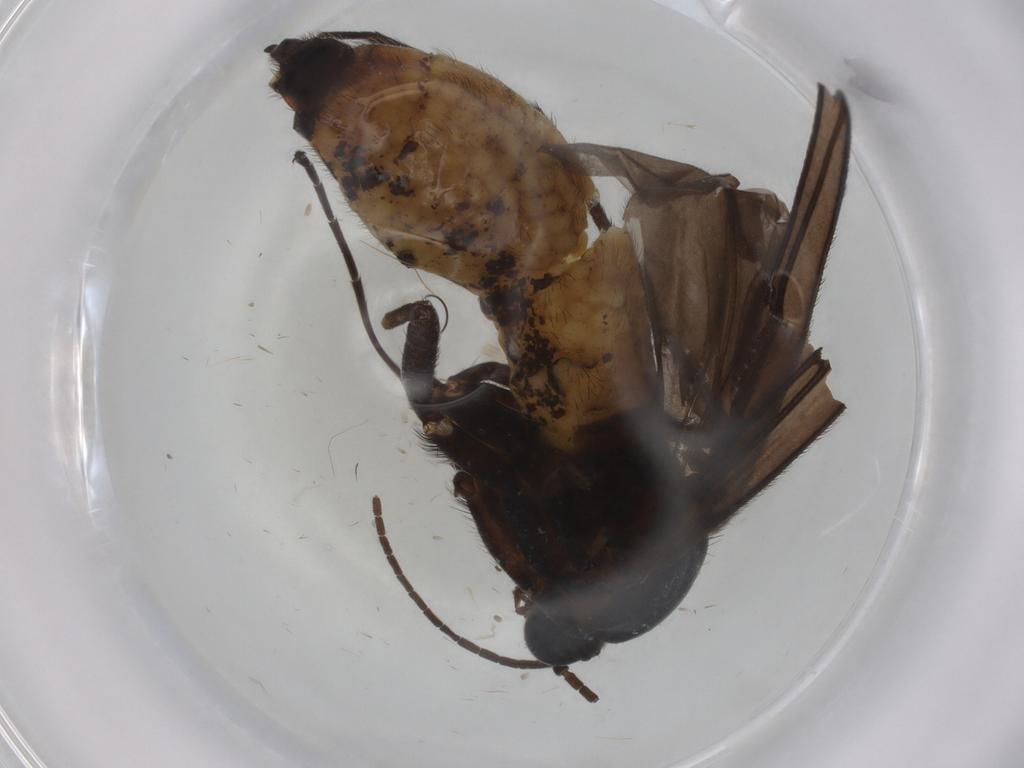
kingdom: Animalia
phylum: Arthropoda
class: Insecta
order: Diptera
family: Sciaridae
